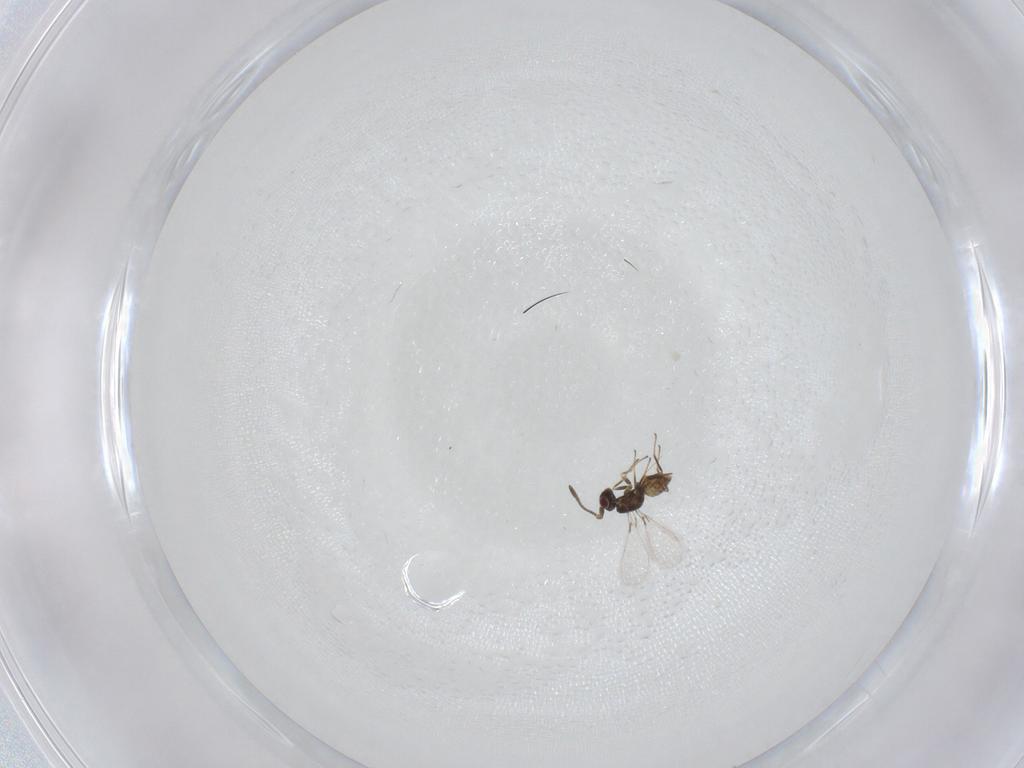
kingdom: Animalia
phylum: Arthropoda
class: Insecta
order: Hymenoptera
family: Mymaridae
